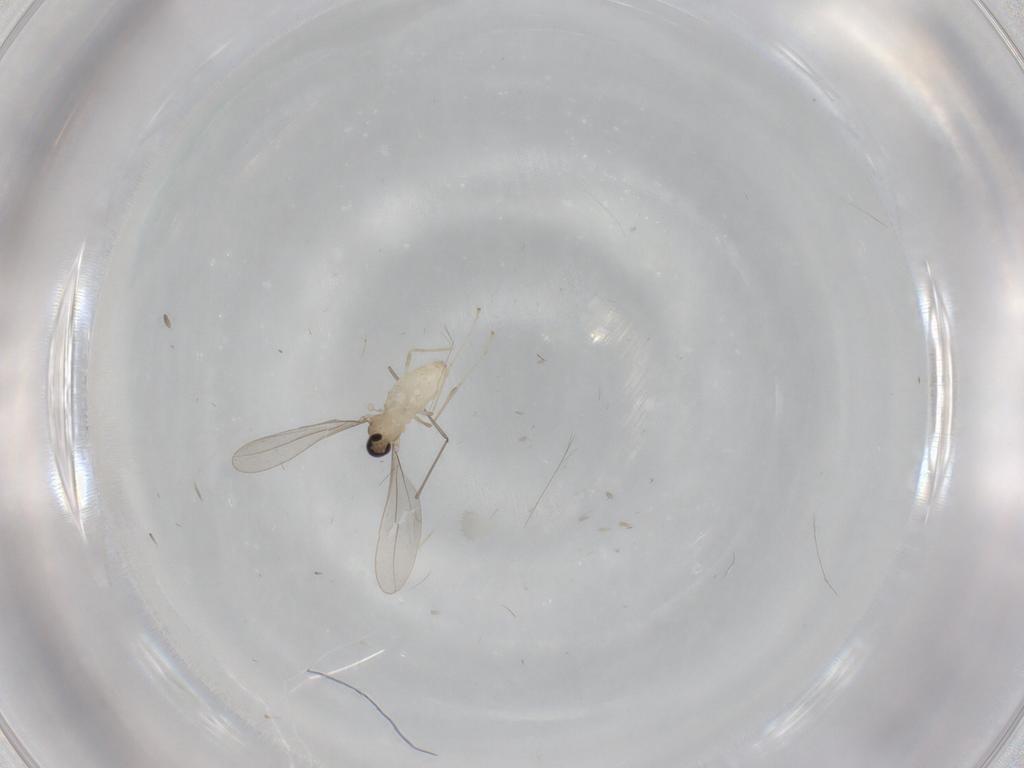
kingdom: Animalia
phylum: Arthropoda
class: Insecta
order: Diptera
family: Cecidomyiidae
